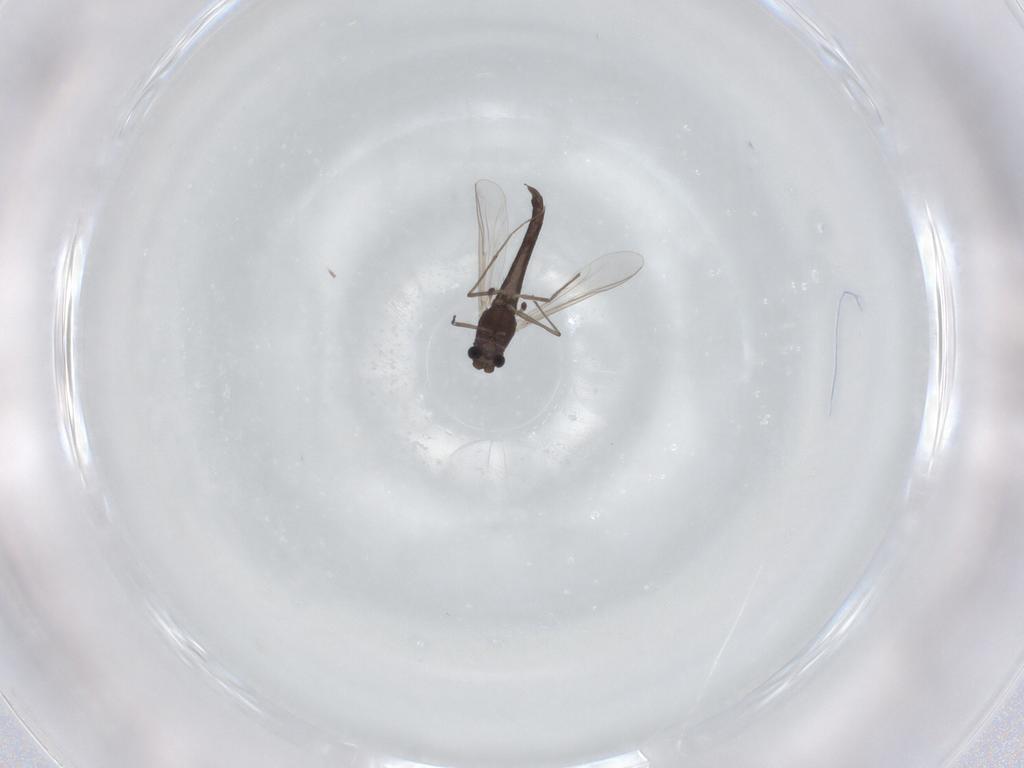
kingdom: Animalia
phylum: Arthropoda
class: Insecta
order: Diptera
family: Chironomidae
